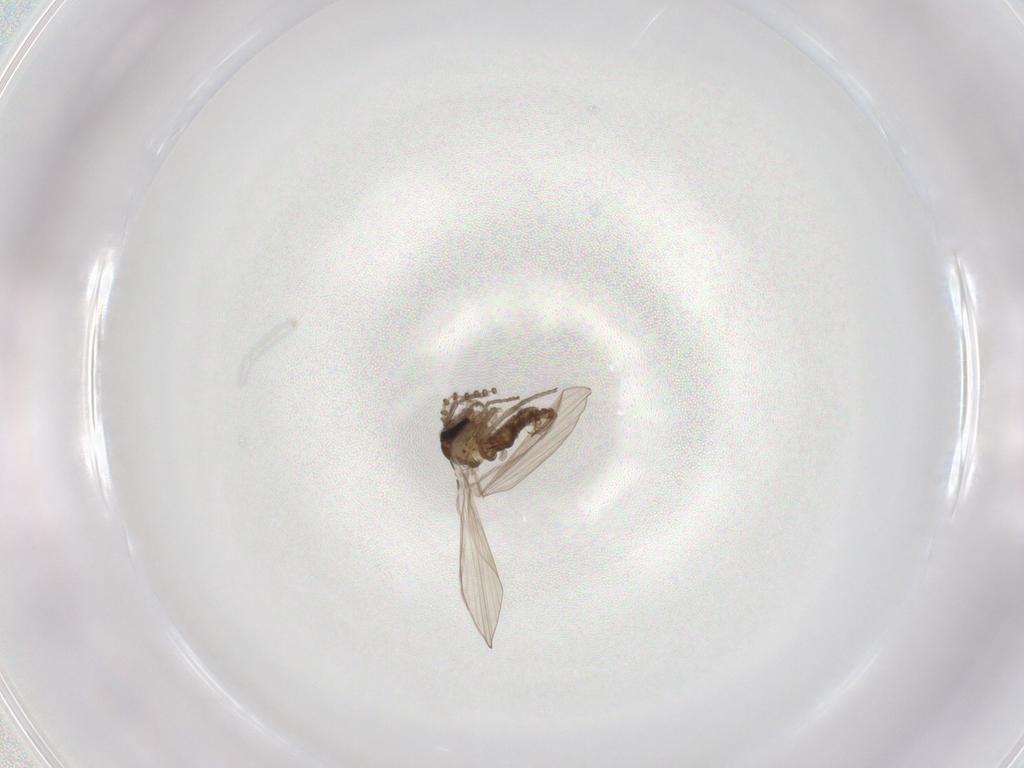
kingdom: Animalia
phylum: Arthropoda
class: Insecta
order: Diptera
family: Psychodidae
